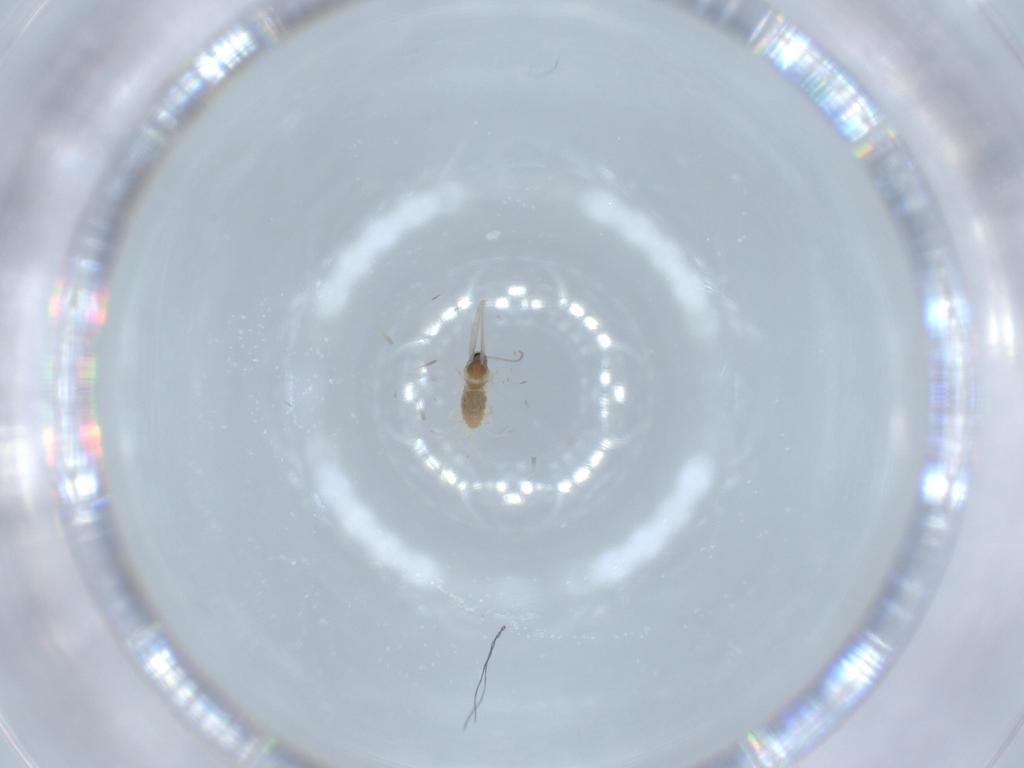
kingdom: Animalia
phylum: Arthropoda
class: Insecta
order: Diptera
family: Cecidomyiidae
